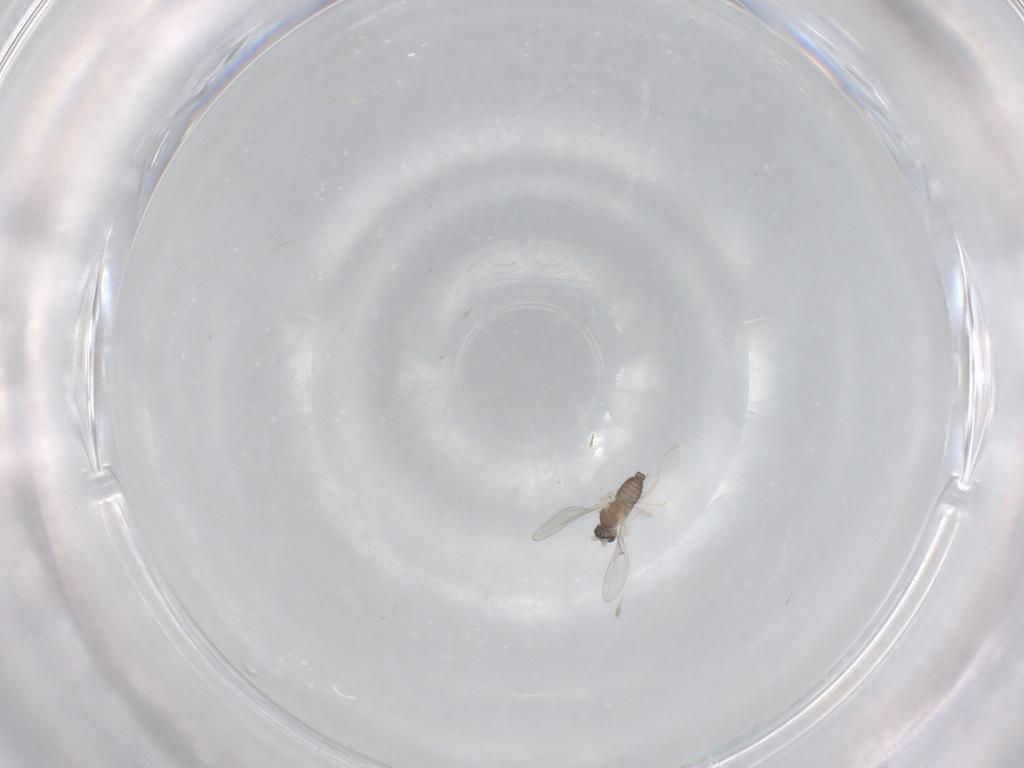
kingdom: Animalia
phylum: Arthropoda
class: Insecta
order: Diptera
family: Cecidomyiidae
